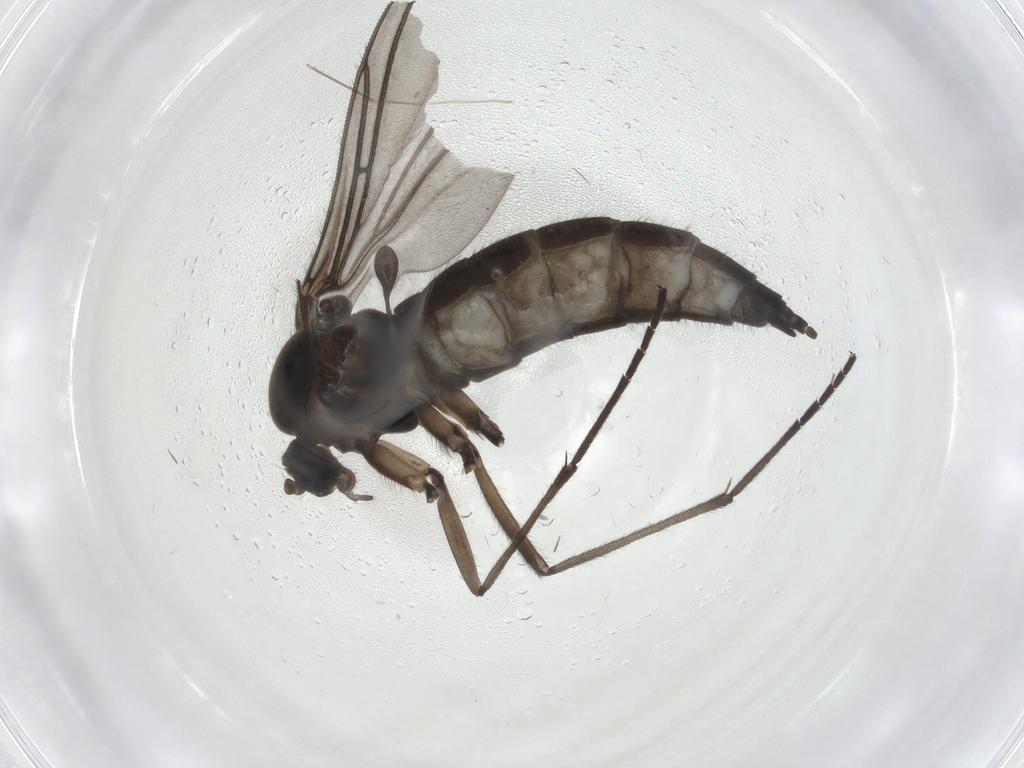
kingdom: Animalia
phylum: Arthropoda
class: Insecta
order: Diptera
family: Sciaridae
